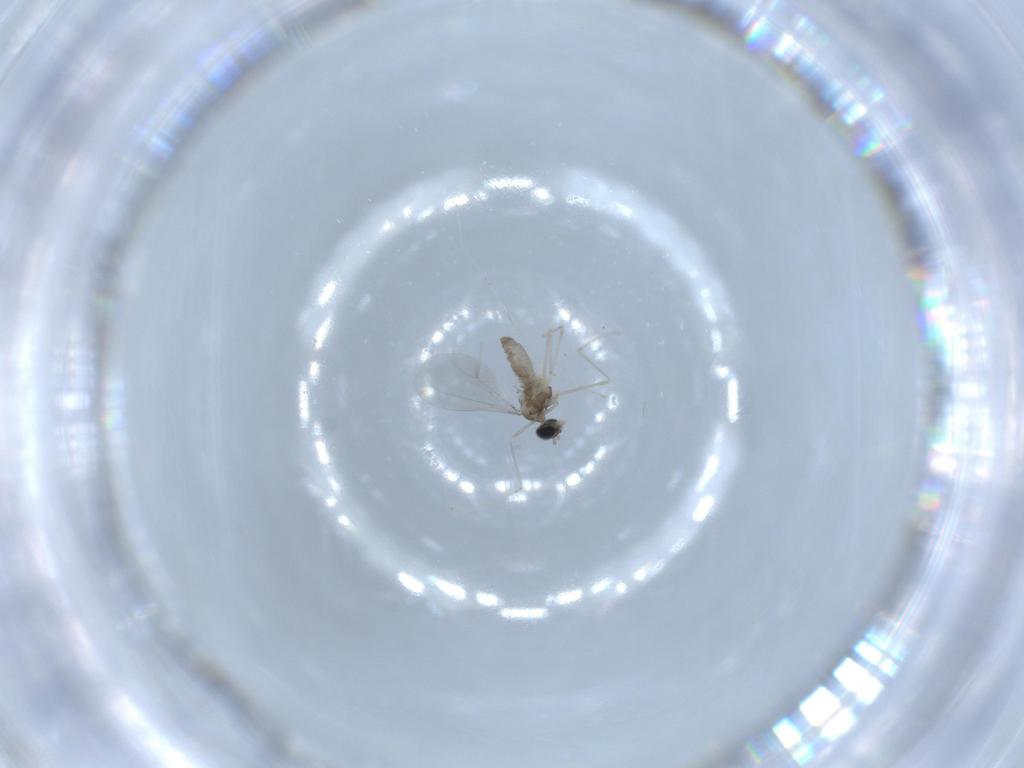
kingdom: Animalia
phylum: Arthropoda
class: Insecta
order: Diptera
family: Cecidomyiidae
